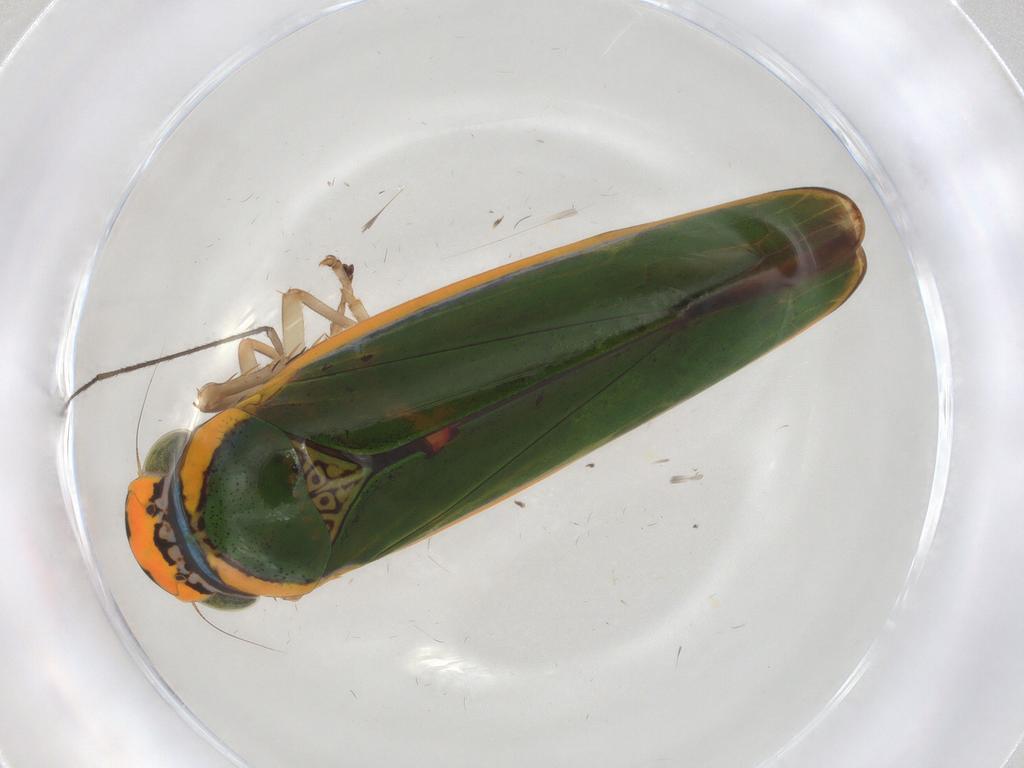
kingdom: Animalia
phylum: Arthropoda
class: Insecta
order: Hemiptera
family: Cicadellidae
